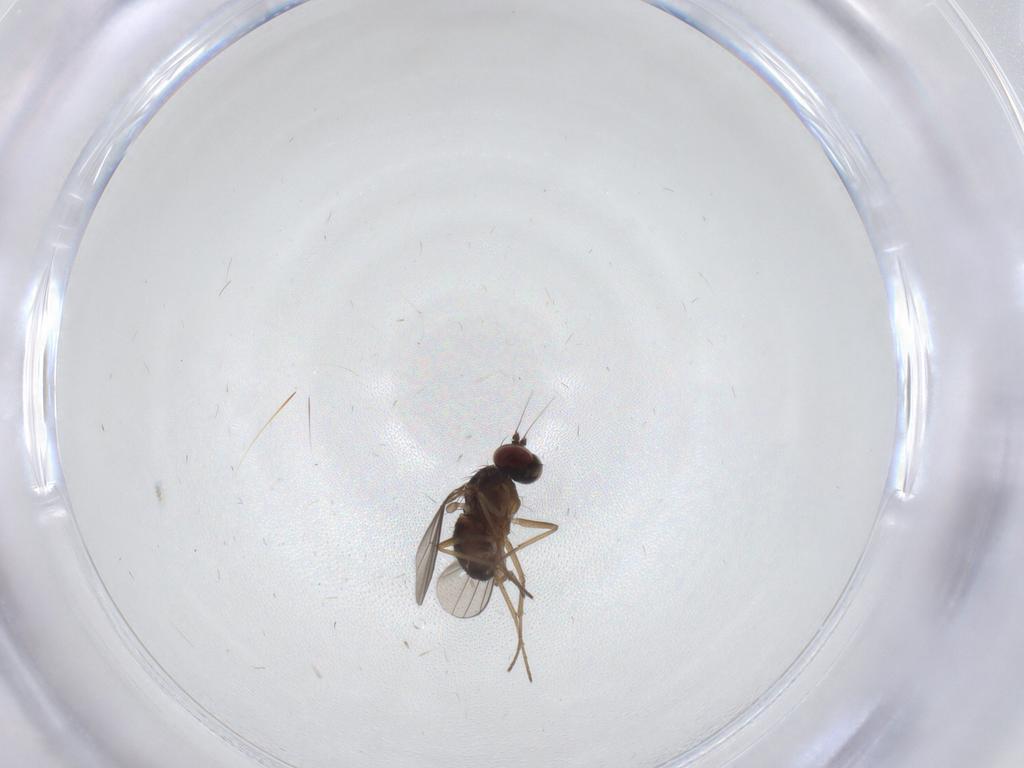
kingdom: Animalia
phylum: Arthropoda
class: Insecta
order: Diptera
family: Dolichopodidae
